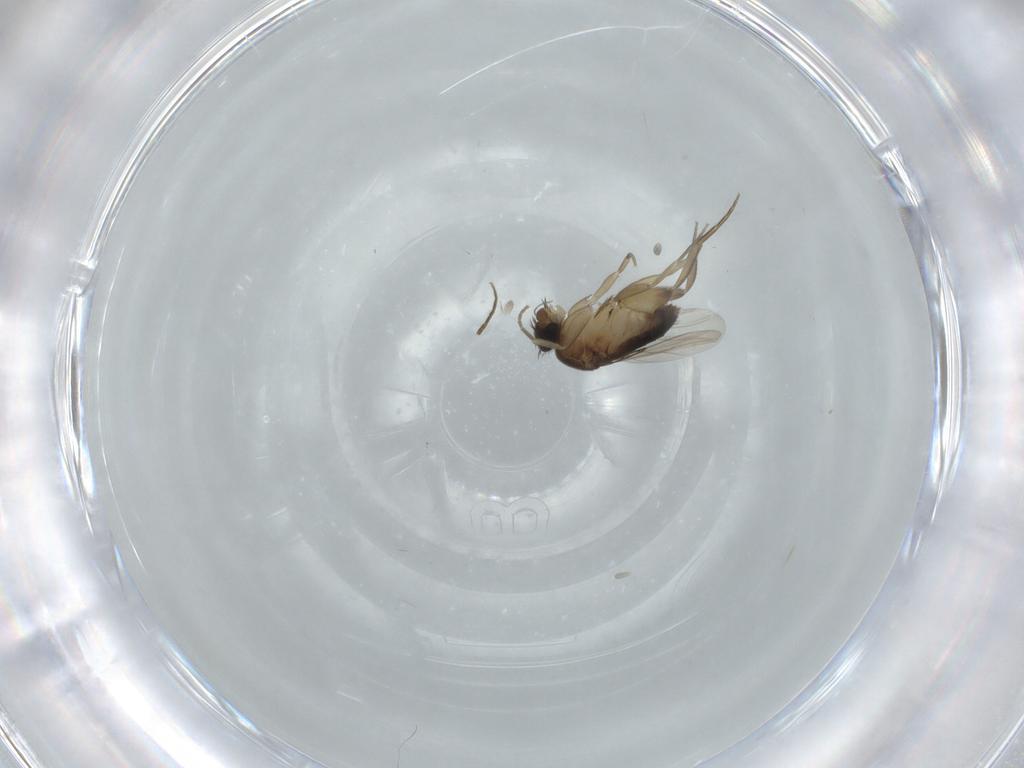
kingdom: Animalia
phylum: Arthropoda
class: Insecta
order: Diptera
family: Phoridae
